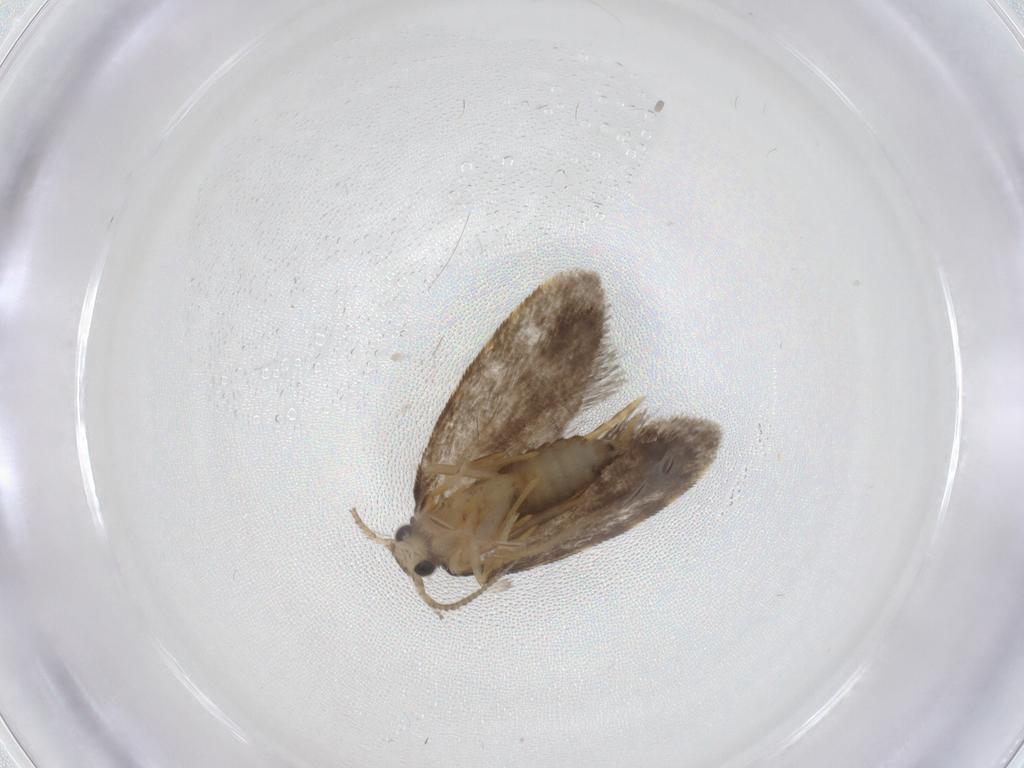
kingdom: Animalia
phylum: Arthropoda
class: Insecta
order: Lepidoptera
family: Psychidae
